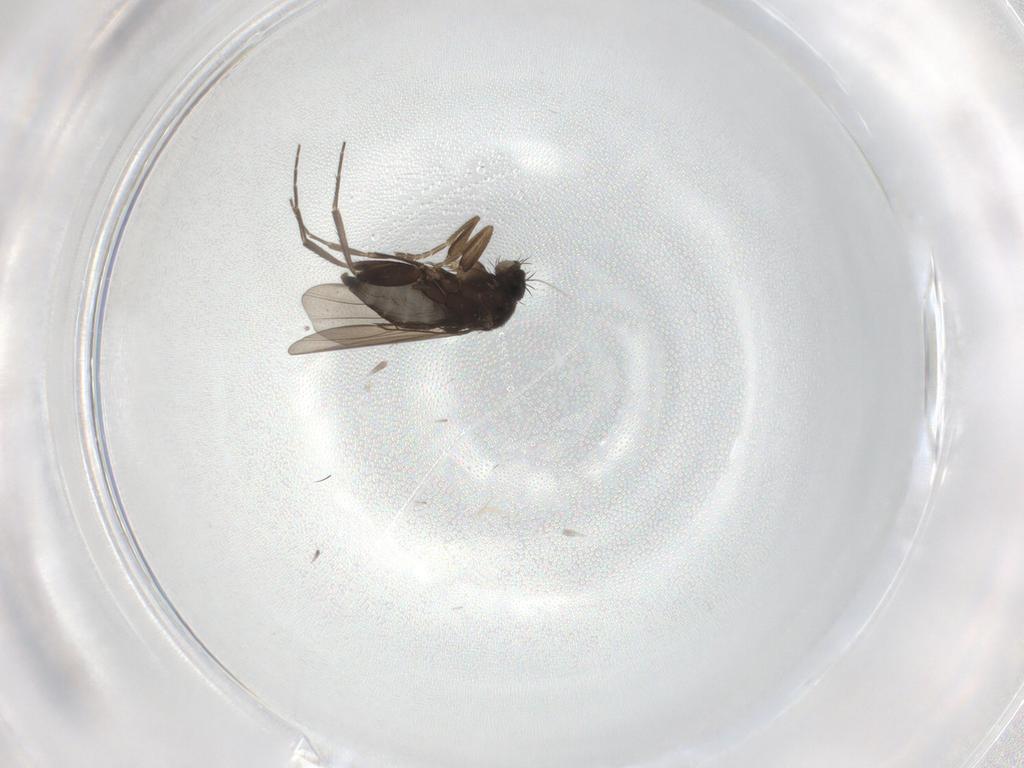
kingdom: Animalia
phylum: Arthropoda
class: Insecta
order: Diptera
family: Phoridae
